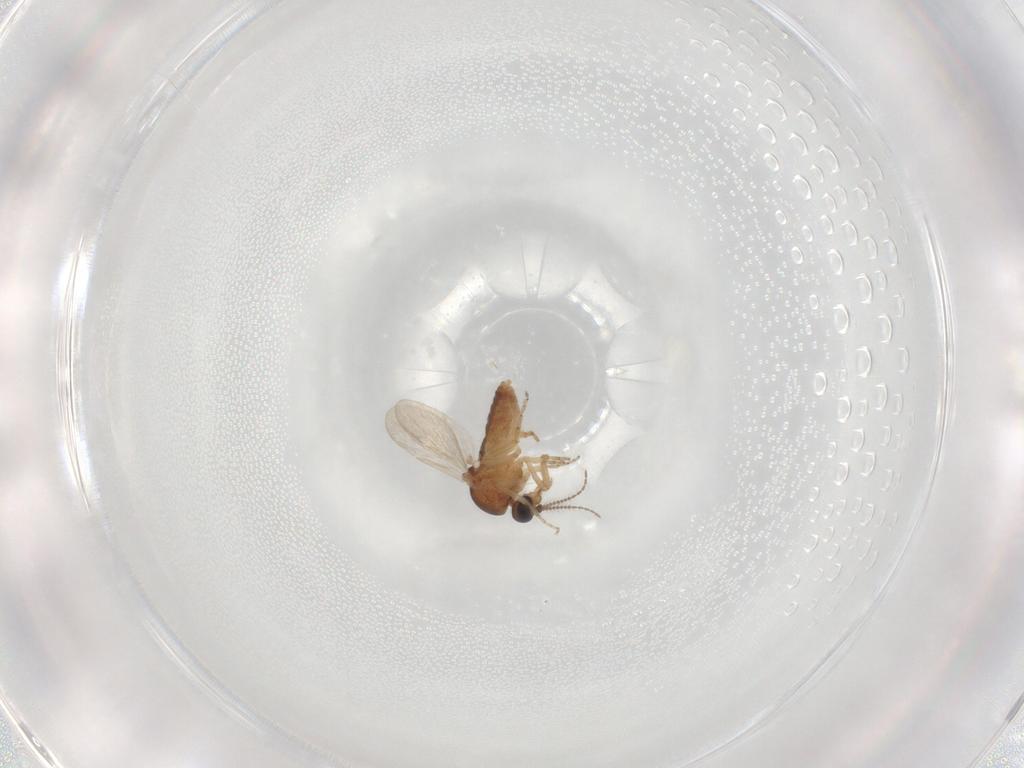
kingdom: Animalia
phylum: Arthropoda
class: Insecta
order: Diptera
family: Ceratopogonidae
